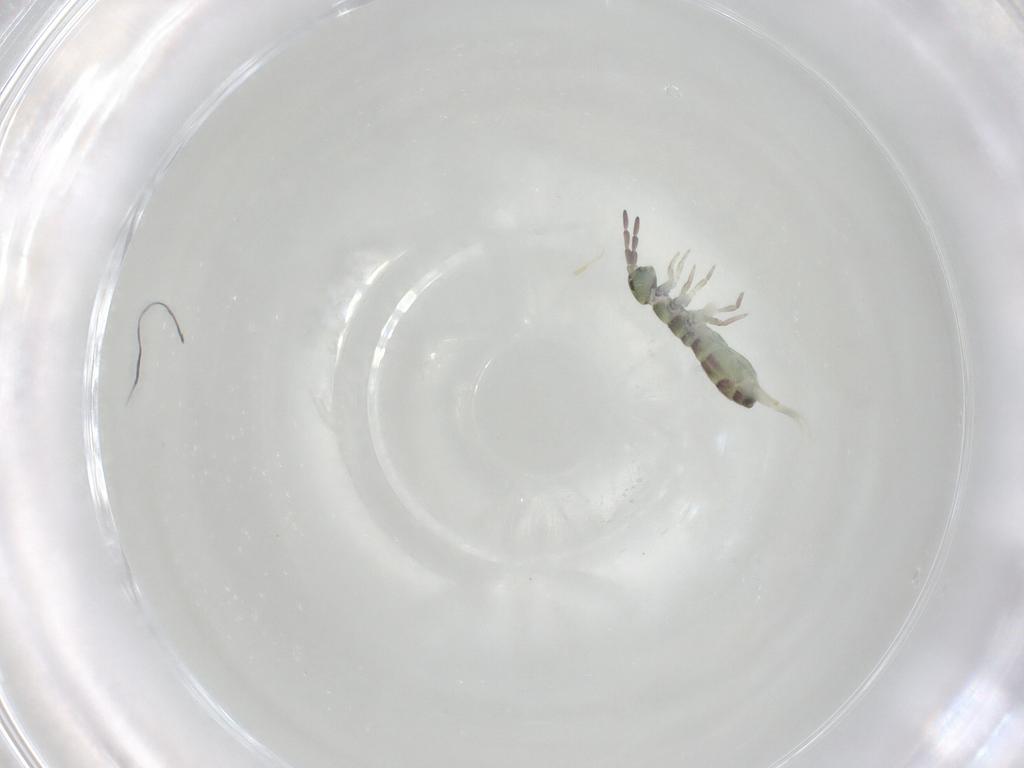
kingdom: Animalia
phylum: Arthropoda
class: Collembola
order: Entomobryomorpha
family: Isotomidae
